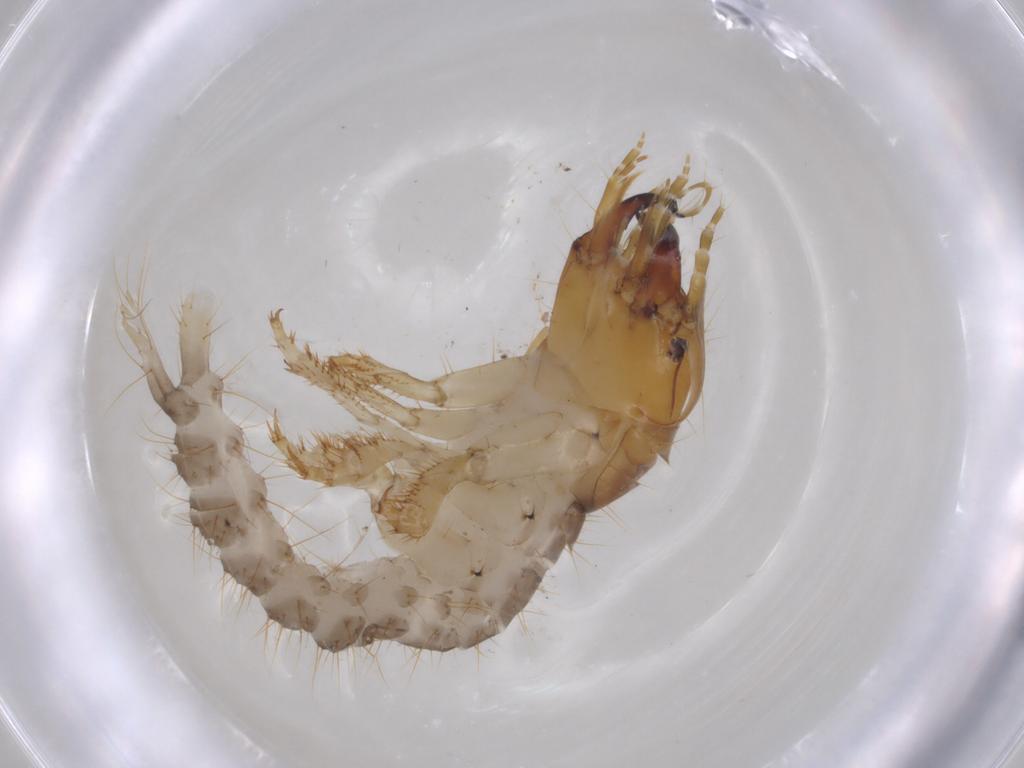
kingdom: Animalia
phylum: Arthropoda
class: Insecta
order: Coleoptera
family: Carabidae
